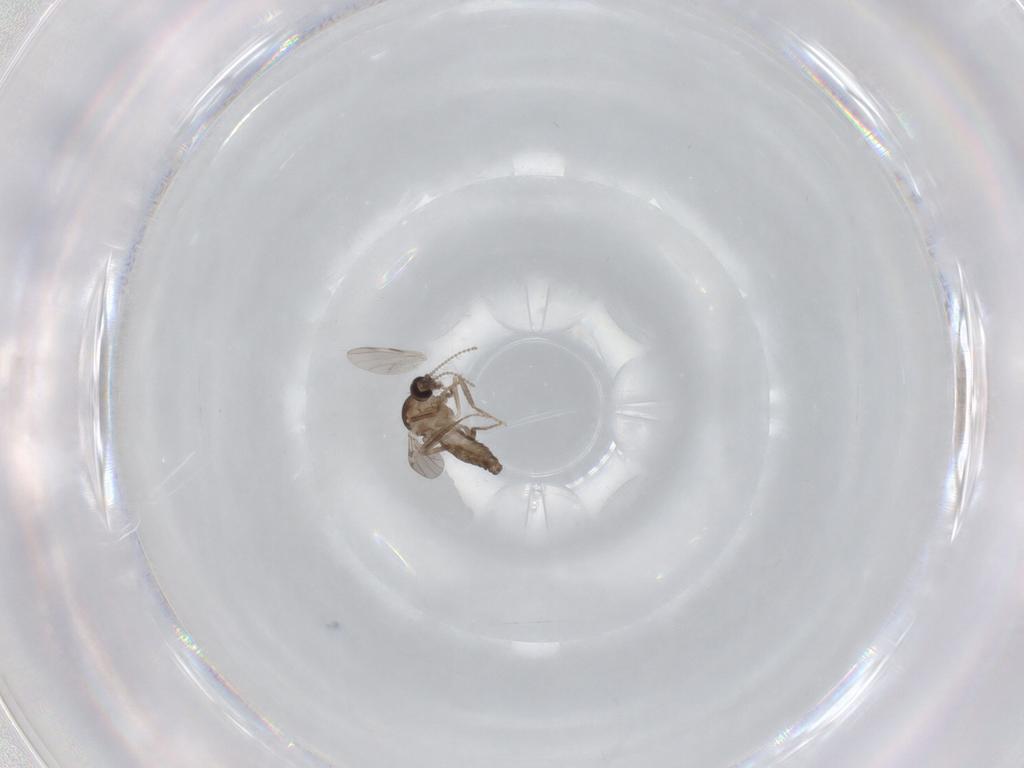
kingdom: Animalia
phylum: Arthropoda
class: Insecta
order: Diptera
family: Ceratopogonidae
